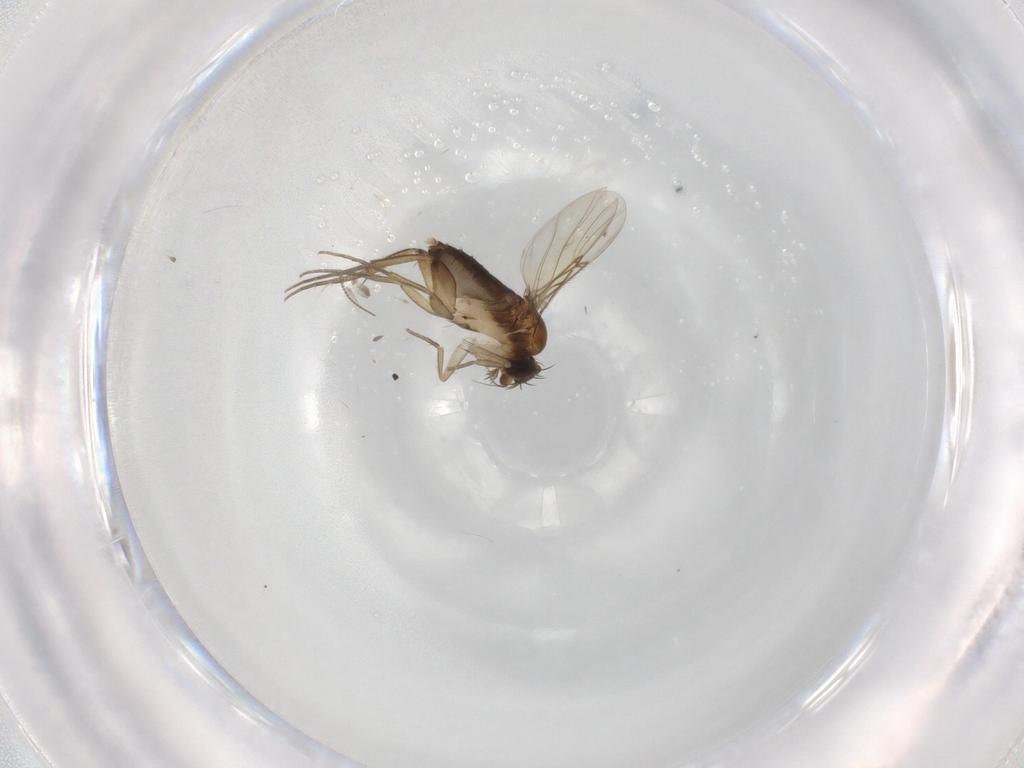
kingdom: Animalia
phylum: Arthropoda
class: Insecta
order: Diptera
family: Phoridae
